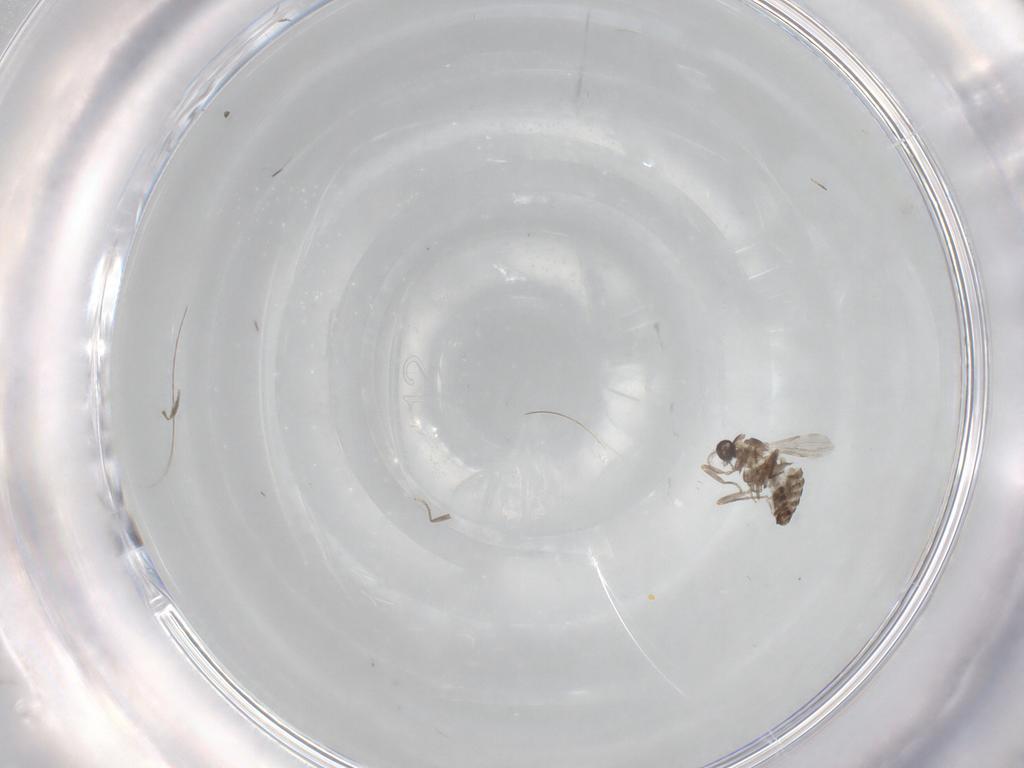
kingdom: Animalia
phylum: Arthropoda
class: Insecta
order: Diptera
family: Ceratopogonidae
